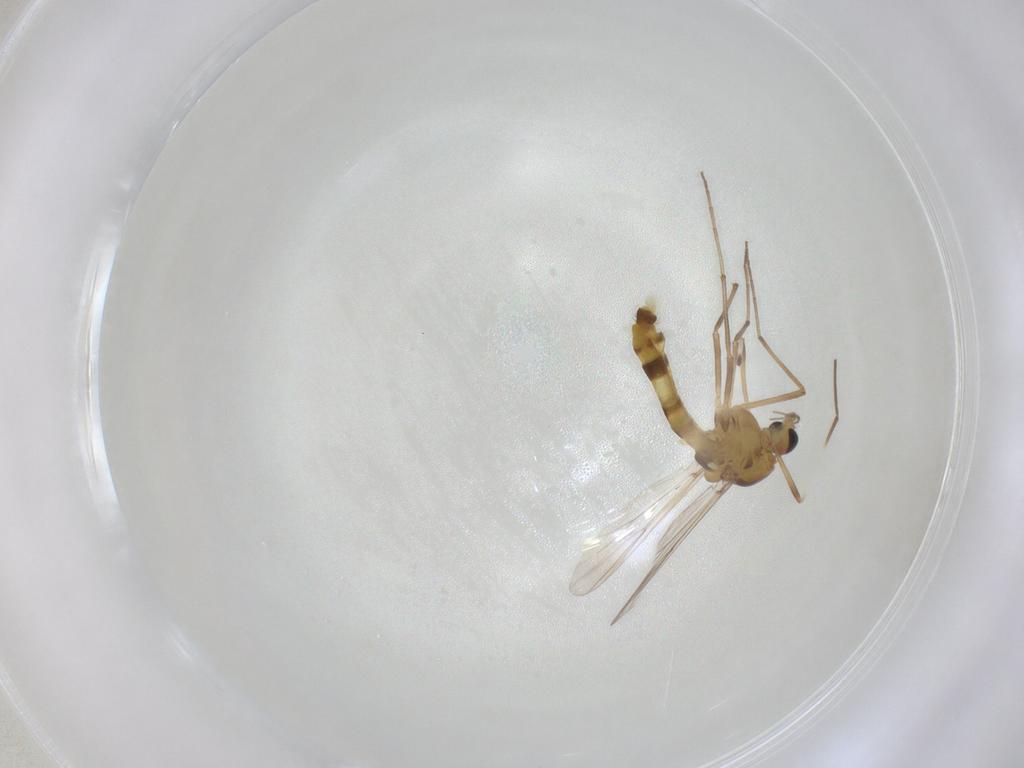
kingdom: Animalia
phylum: Arthropoda
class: Insecta
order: Diptera
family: Chironomidae
